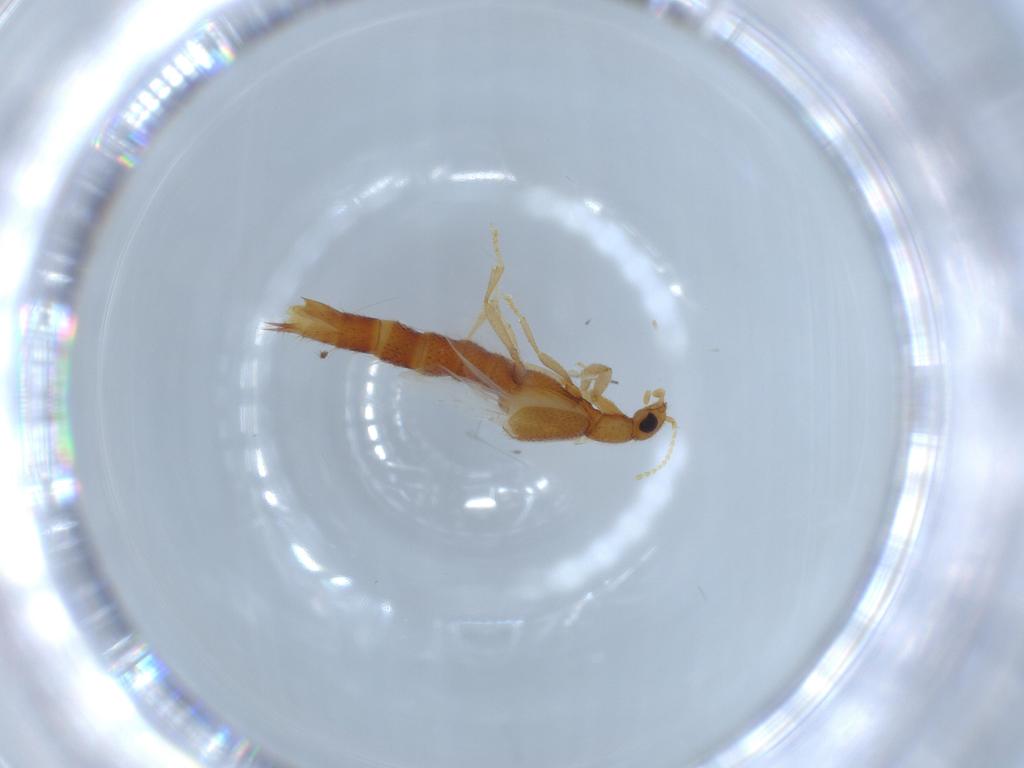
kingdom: Animalia
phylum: Arthropoda
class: Insecta
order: Coleoptera
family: Staphylinidae
